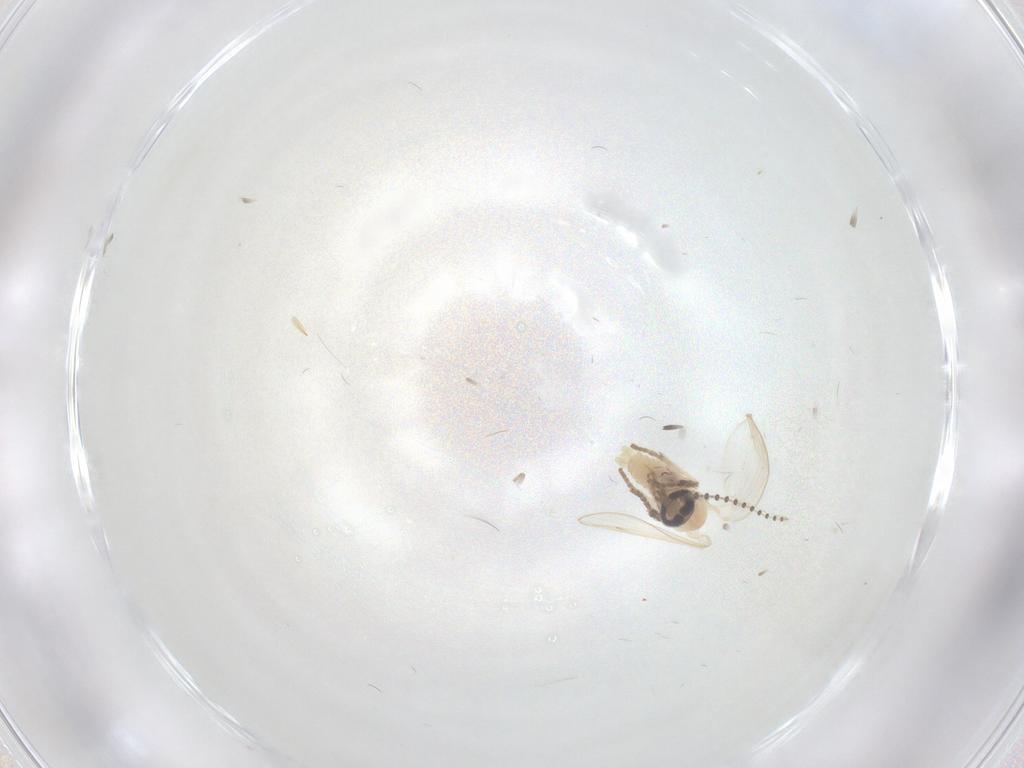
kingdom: Animalia
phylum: Arthropoda
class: Insecta
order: Diptera
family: Psychodidae
